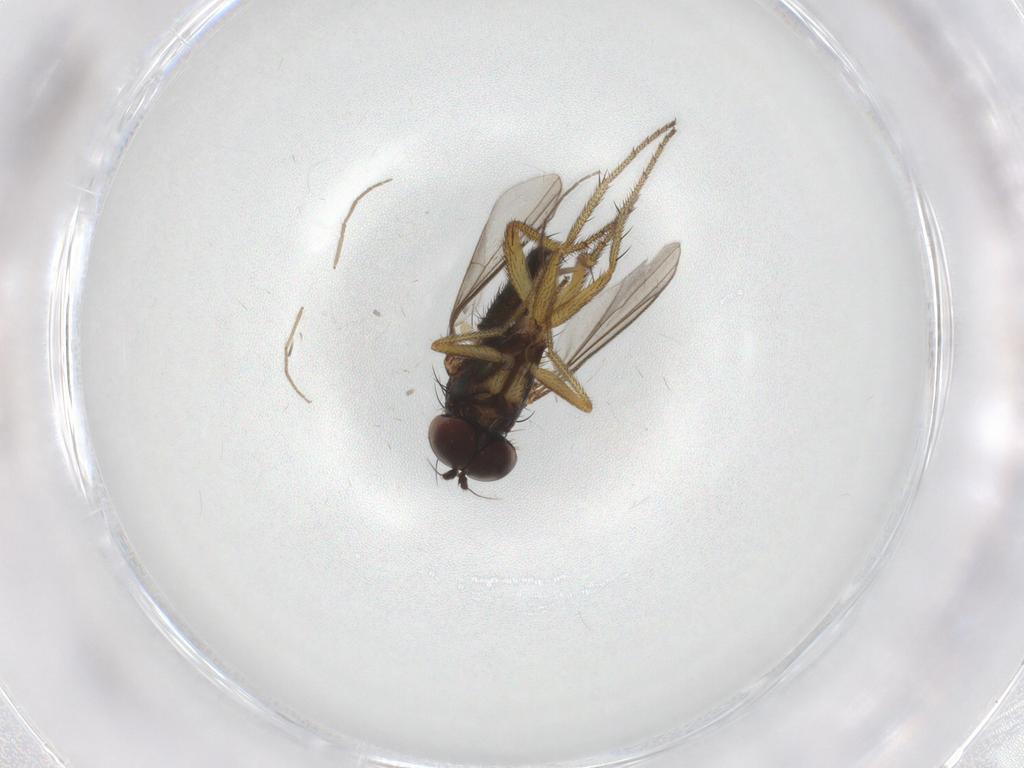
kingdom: Animalia
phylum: Arthropoda
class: Insecta
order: Diptera
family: Chironomidae
